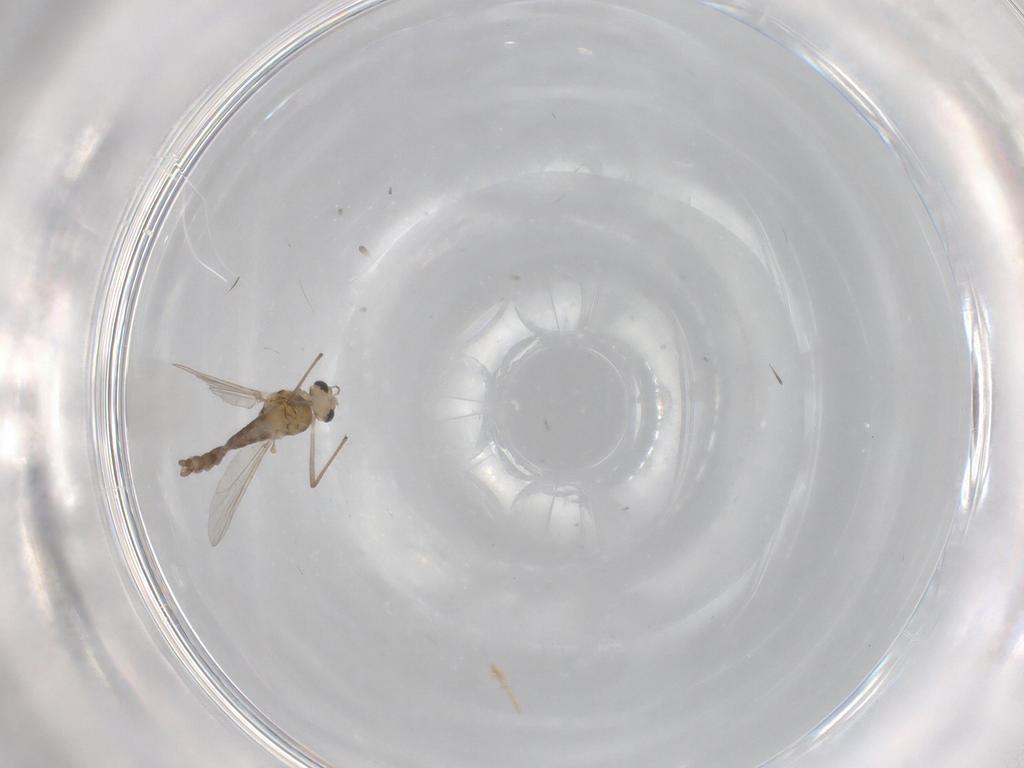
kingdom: Animalia
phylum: Arthropoda
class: Insecta
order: Diptera
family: Chironomidae
